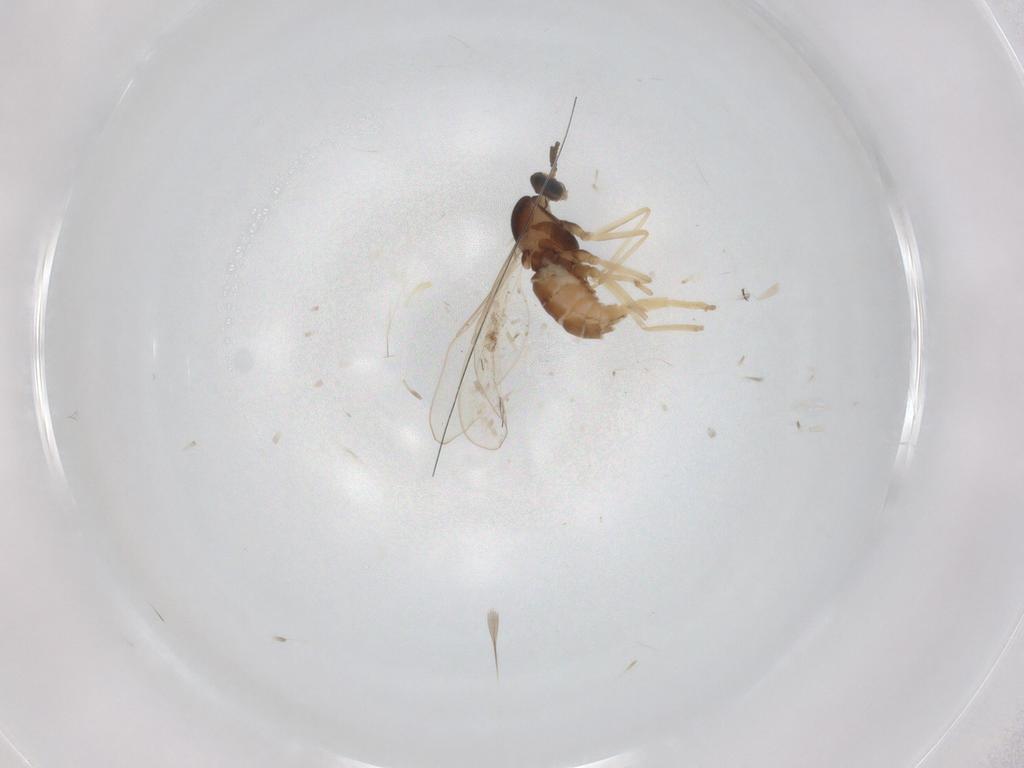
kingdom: Animalia
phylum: Arthropoda
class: Insecta
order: Diptera
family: Cecidomyiidae
